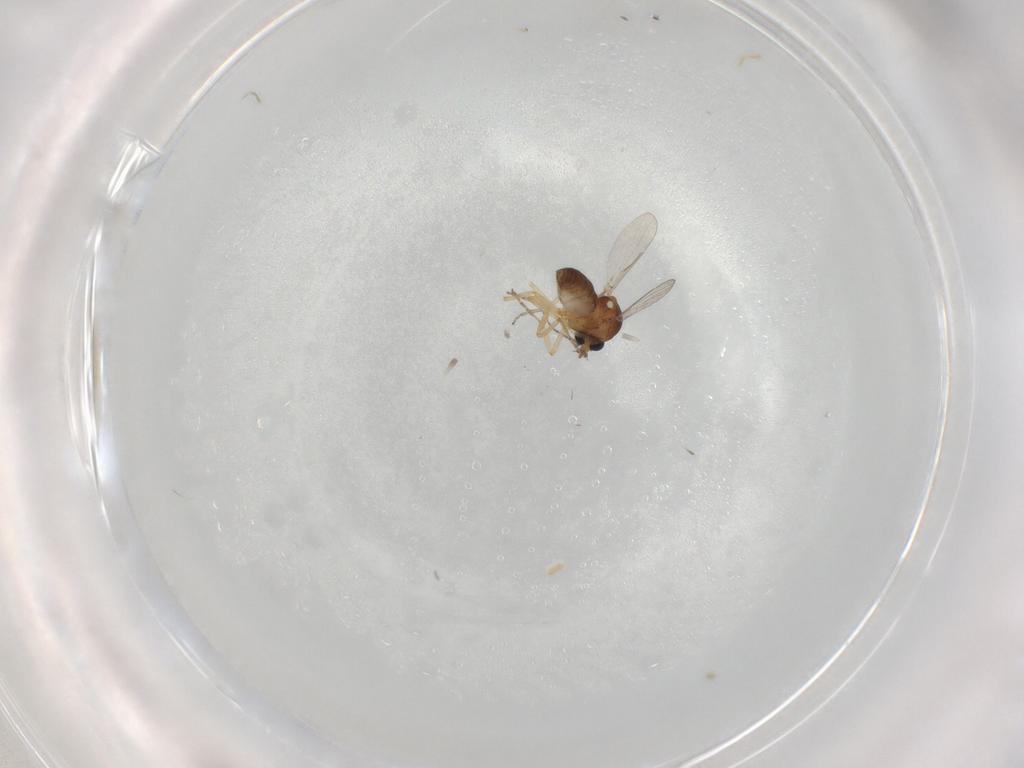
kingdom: Animalia
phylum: Arthropoda
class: Insecta
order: Diptera
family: Ceratopogonidae
